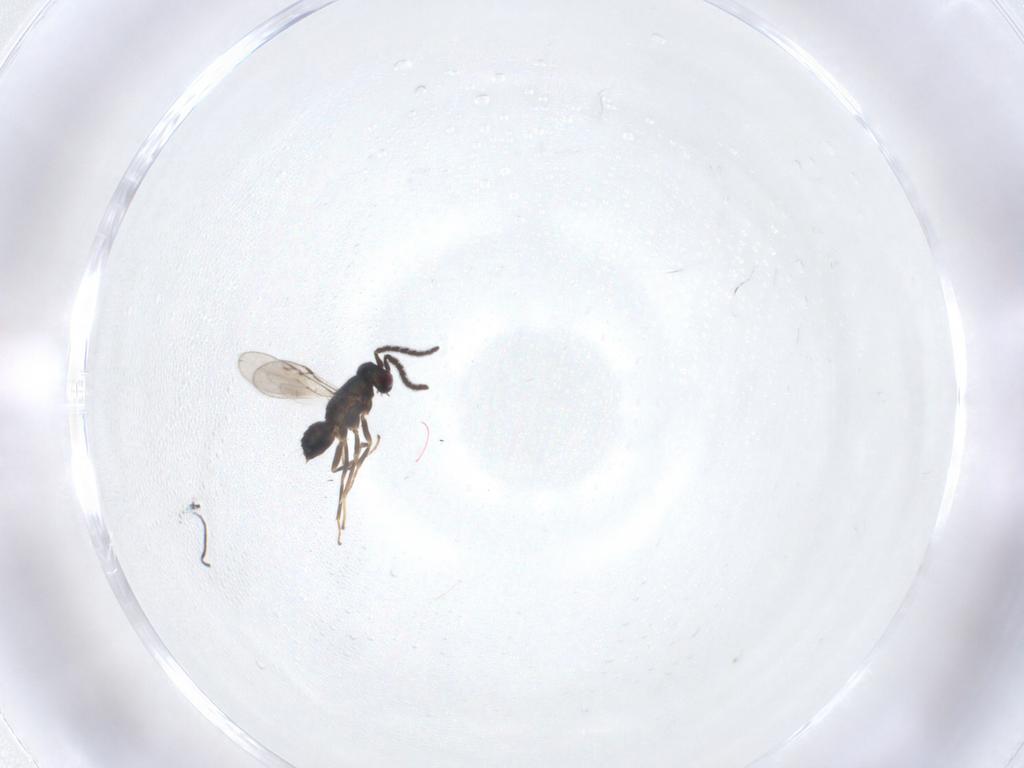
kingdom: Animalia
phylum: Arthropoda
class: Insecta
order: Hymenoptera
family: Encyrtidae
